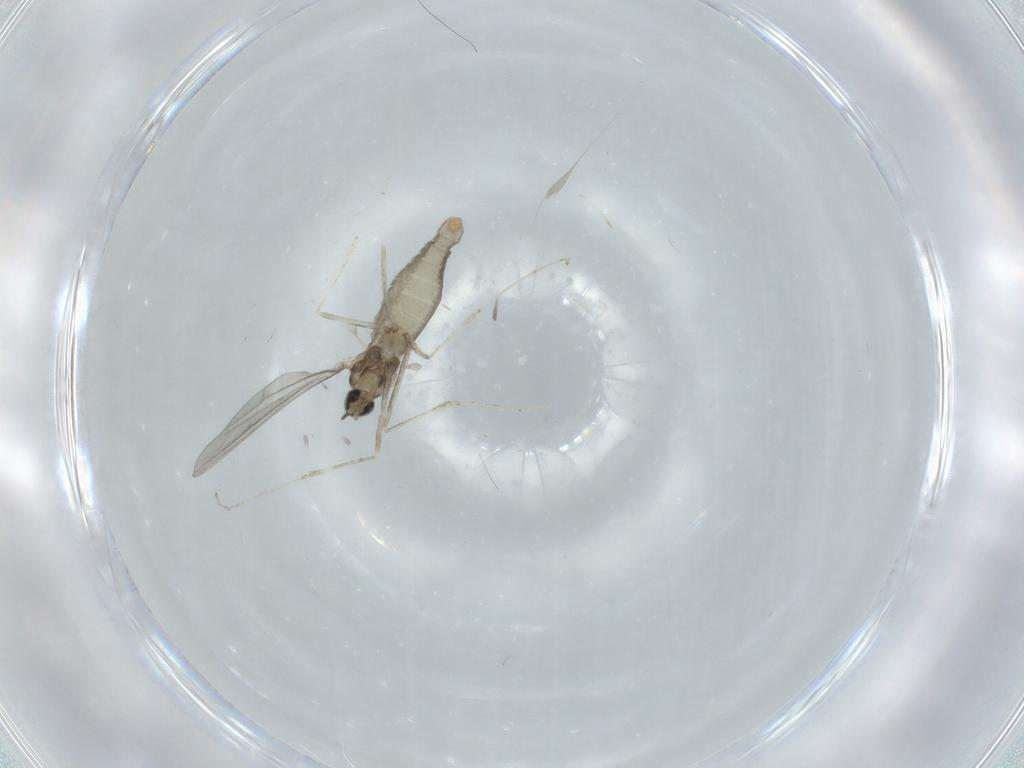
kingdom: Animalia
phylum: Arthropoda
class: Insecta
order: Diptera
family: Cecidomyiidae
